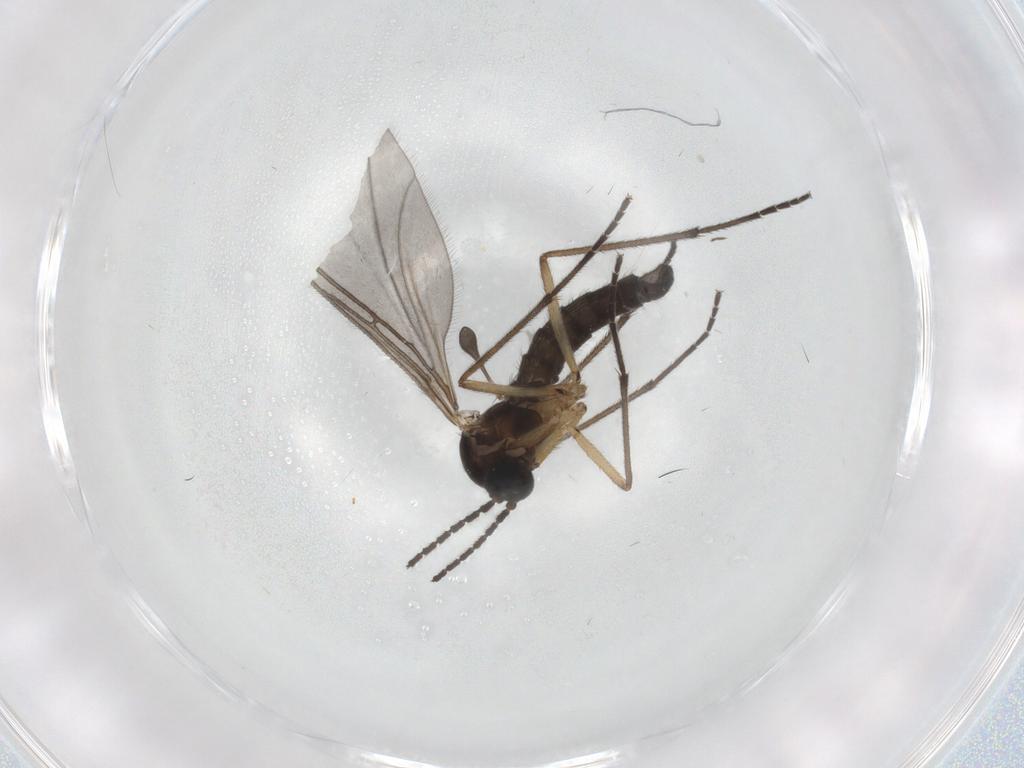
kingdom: Animalia
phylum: Arthropoda
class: Insecta
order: Diptera
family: Sciaridae
